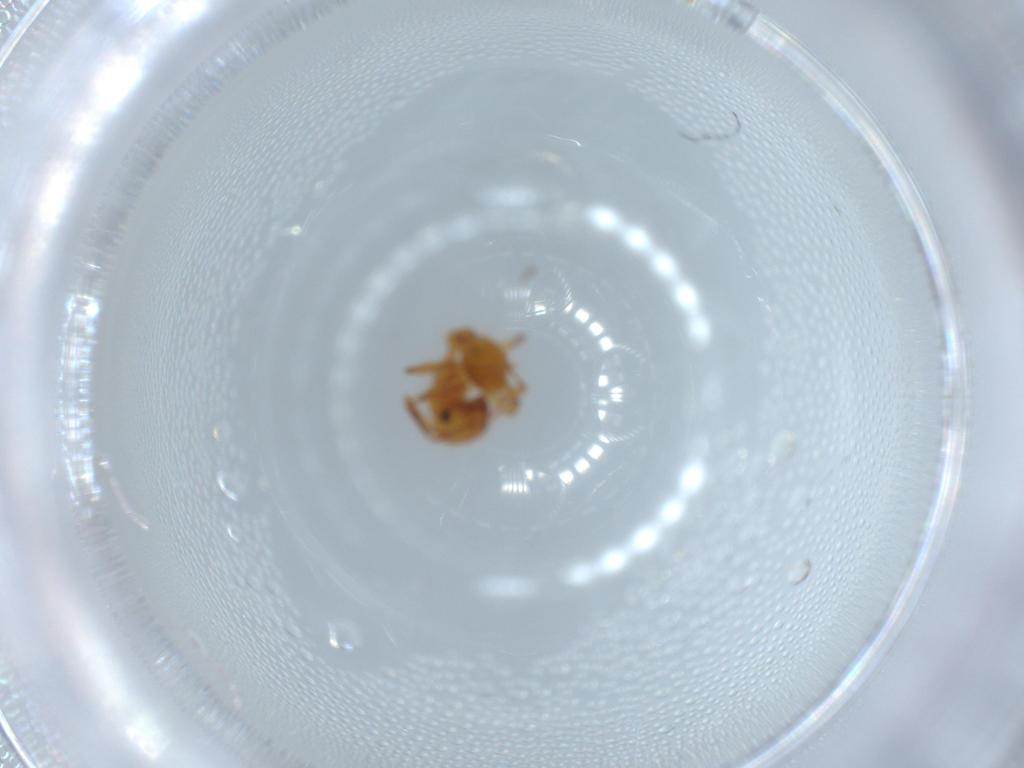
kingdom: Animalia
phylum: Arthropoda
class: Insecta
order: Hymenoptera
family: Formicidae
